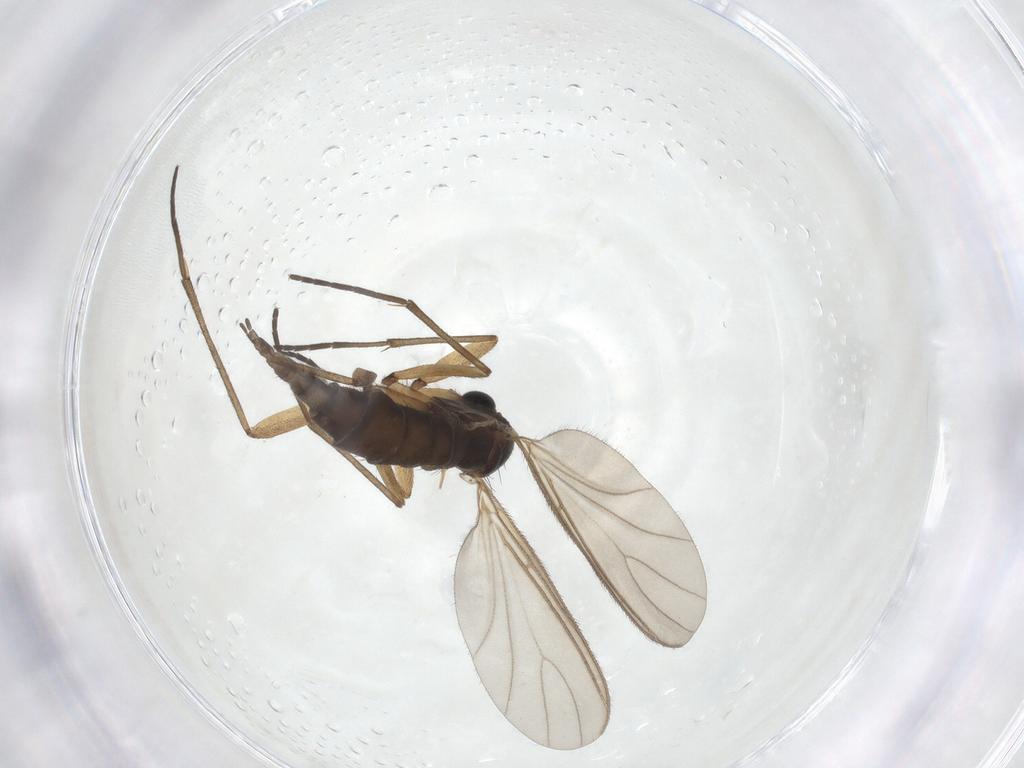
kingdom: Animalia
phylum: Arthropoda
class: Insecta
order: Diptera
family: Sciaridae
